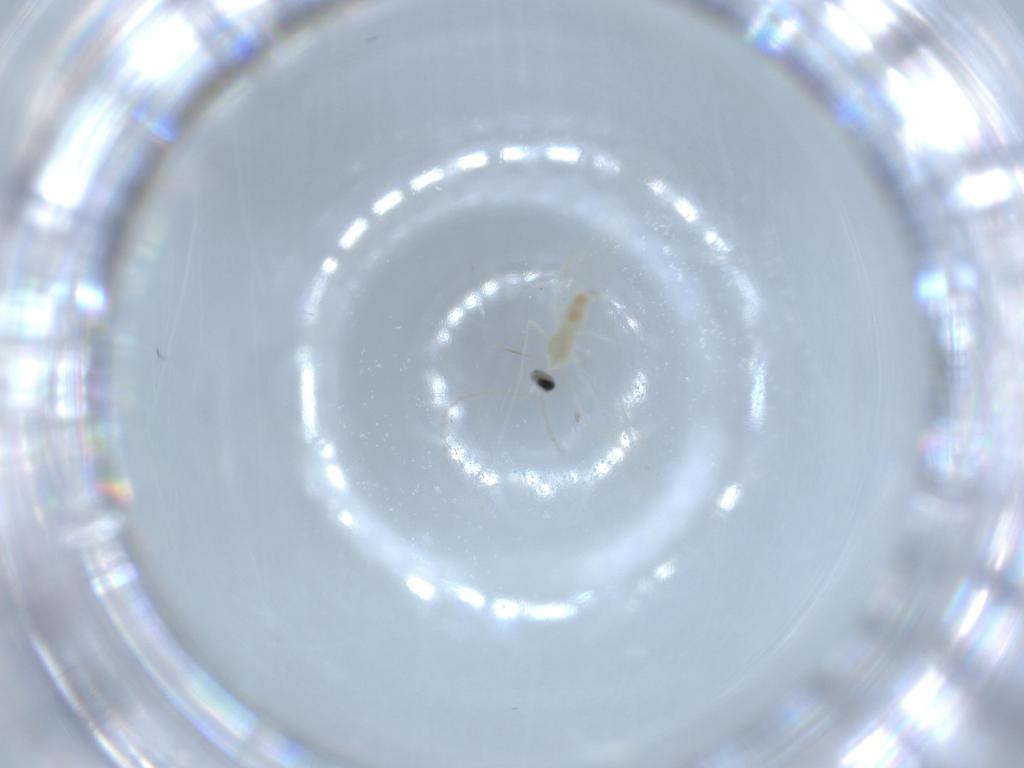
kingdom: Animalia
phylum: Arthropoda
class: Insecta
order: Diptera
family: Cecidomyiidae
